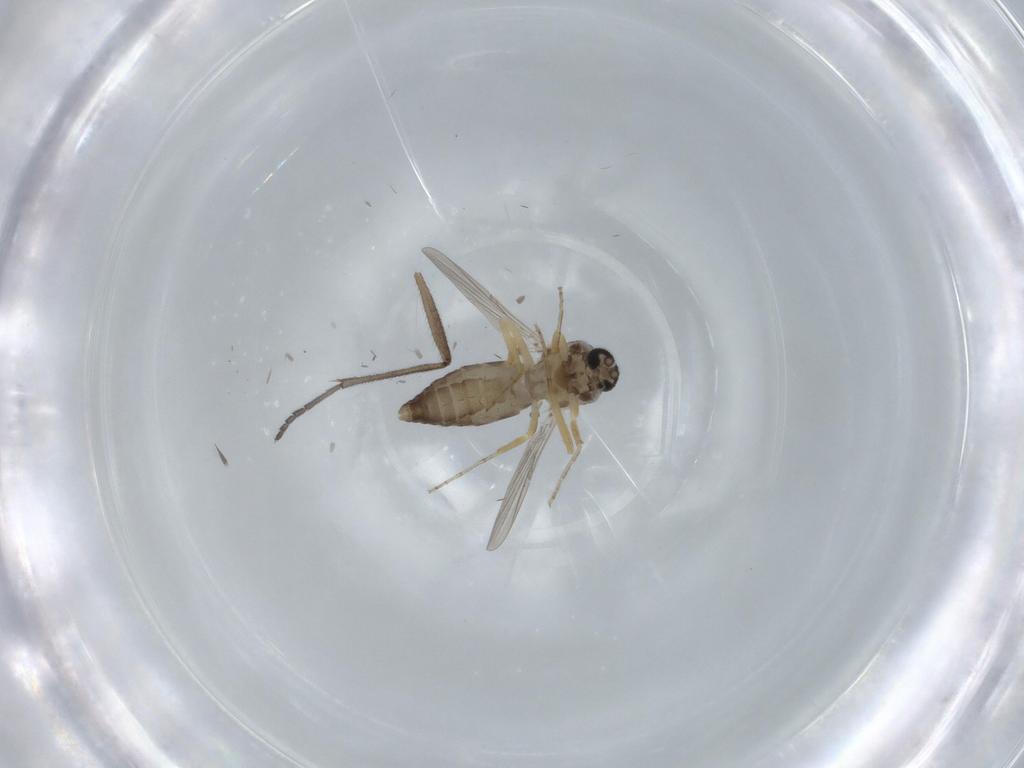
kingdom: Animalia
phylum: Arthropoda
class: Insecta
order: Diptera
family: Ceratopogonidae
